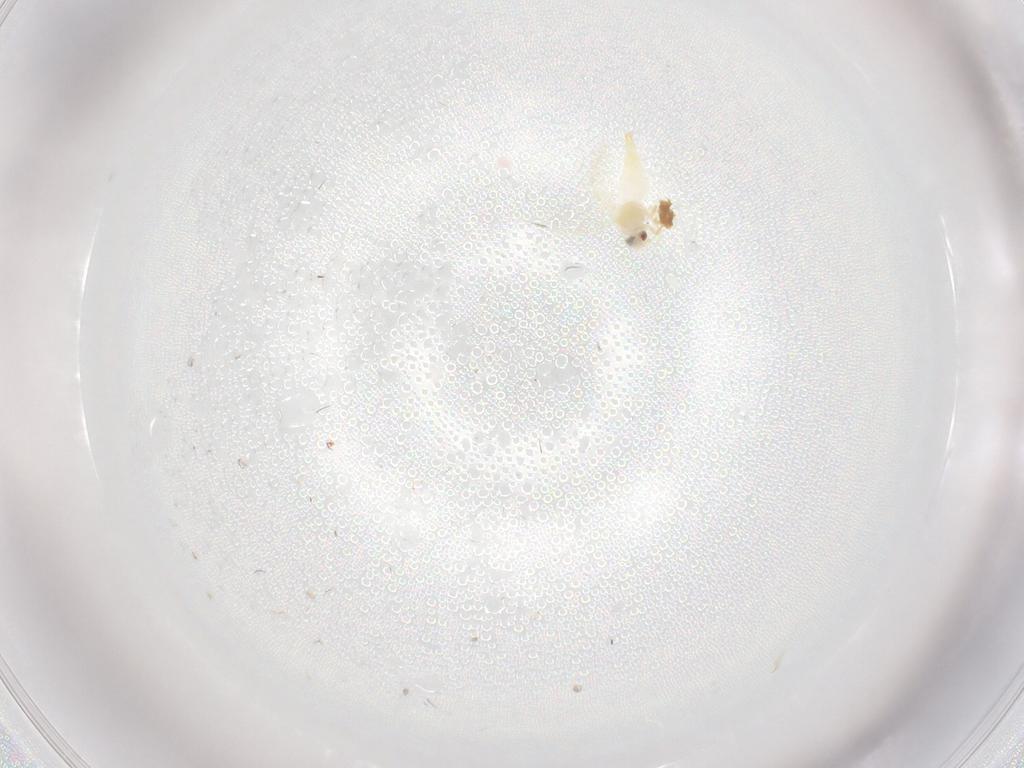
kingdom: Animalia
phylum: Arthropoda
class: Insecta
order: Hemiptera
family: Aleyrodidae
